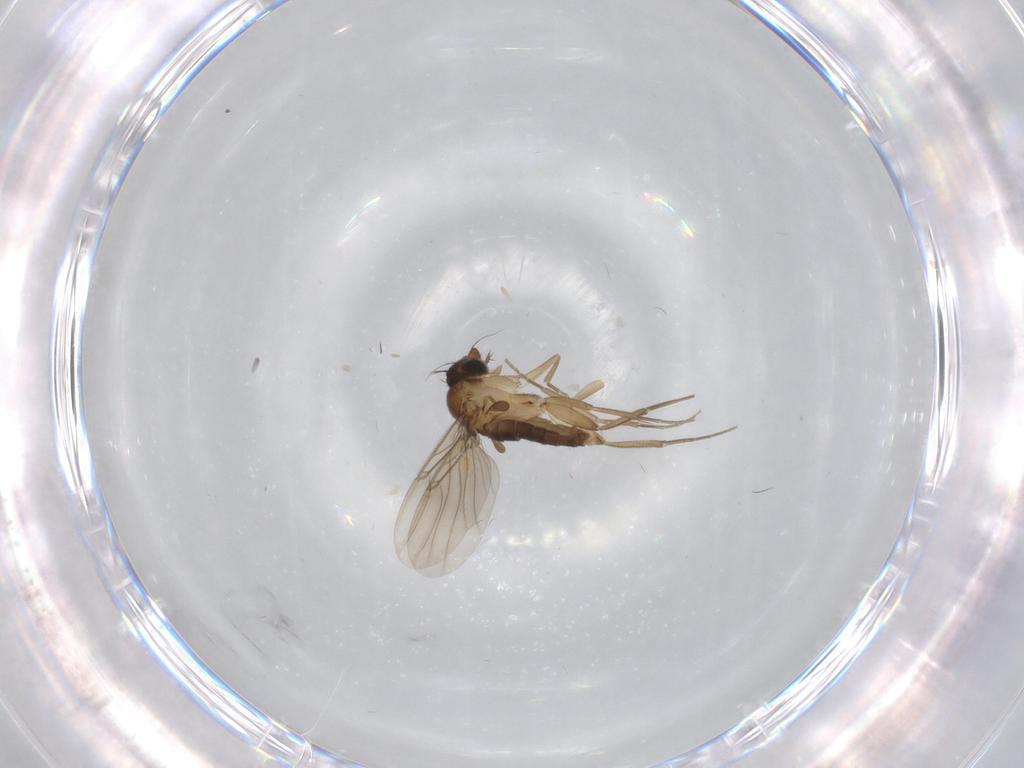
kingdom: Animalia
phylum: Arthropoda
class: Insecta
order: Diptera
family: Phoridae
